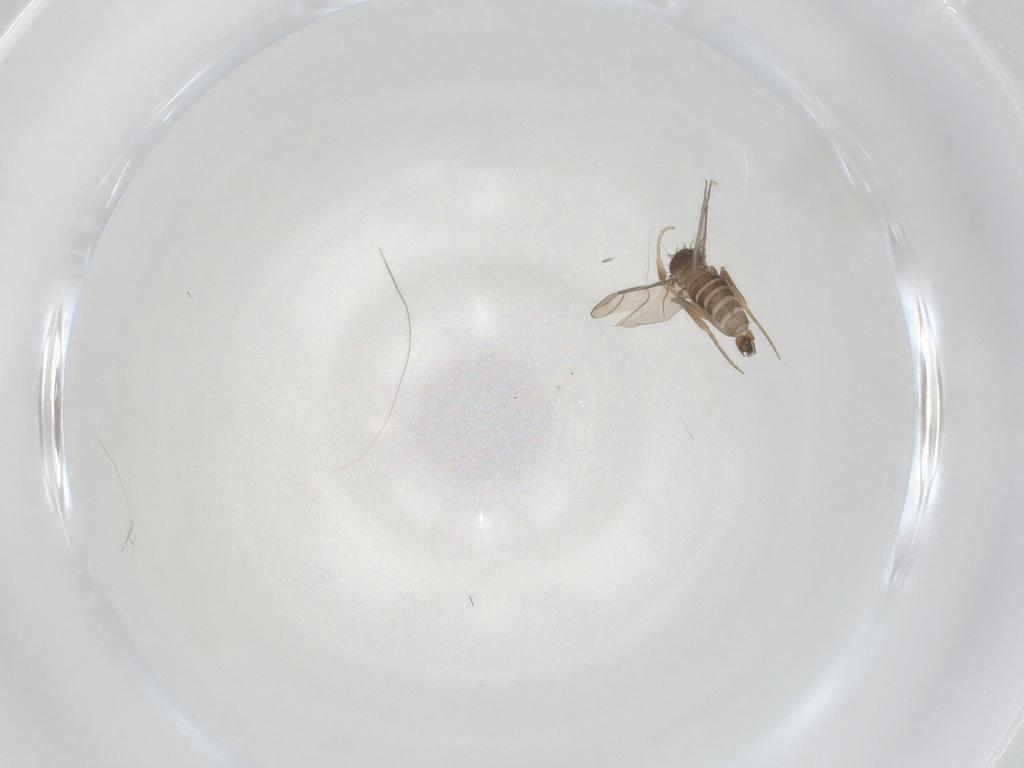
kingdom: Animalia
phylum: Arthropoda
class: Insecta
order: Diptera
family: Phoridae
